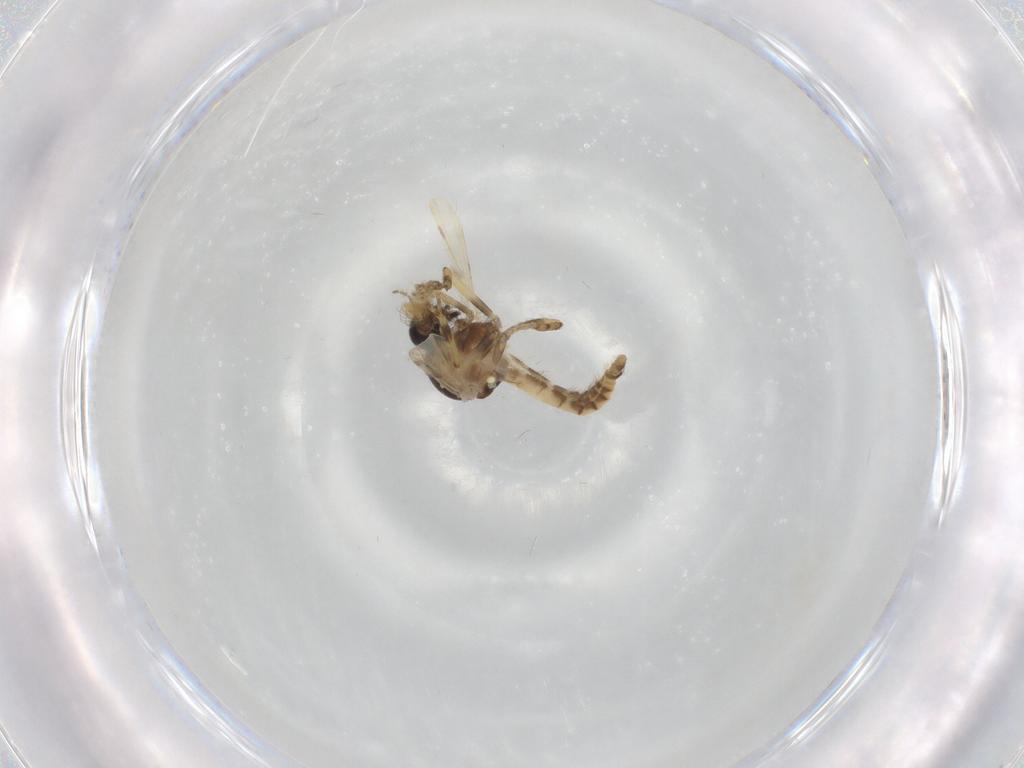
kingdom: Animalia
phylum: Arthropoda
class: Insecta
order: Diptera
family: Ceratopogonidae
